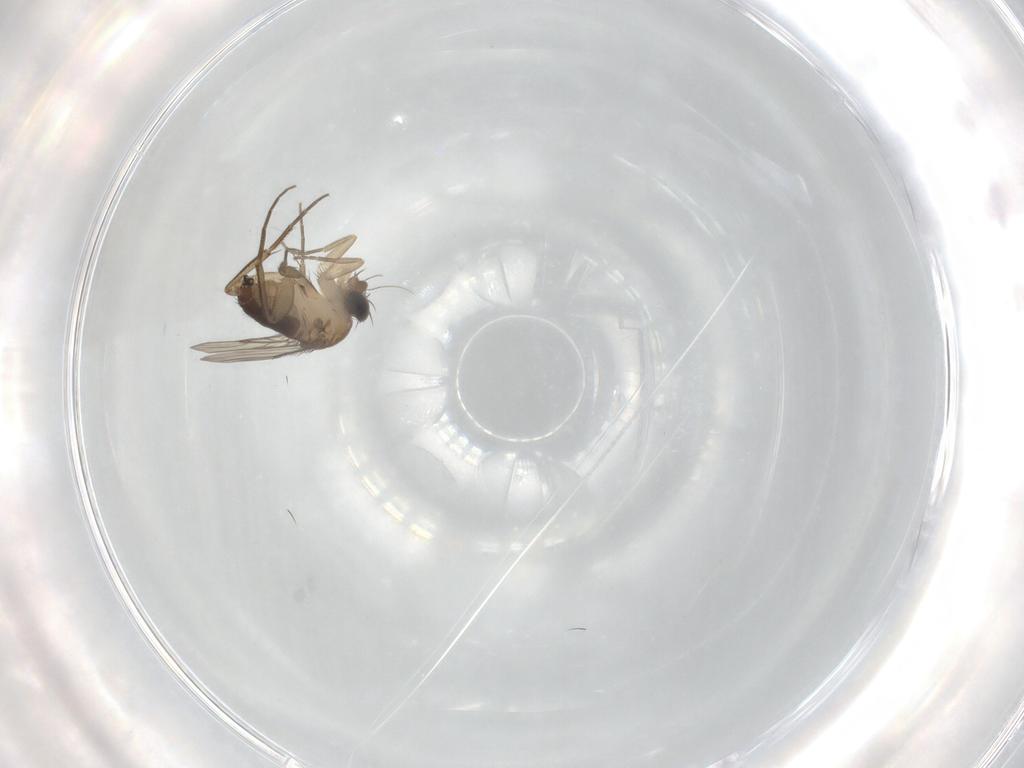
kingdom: Animalia
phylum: Arthropoda
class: Insecta
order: Diptera
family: Phoridae
